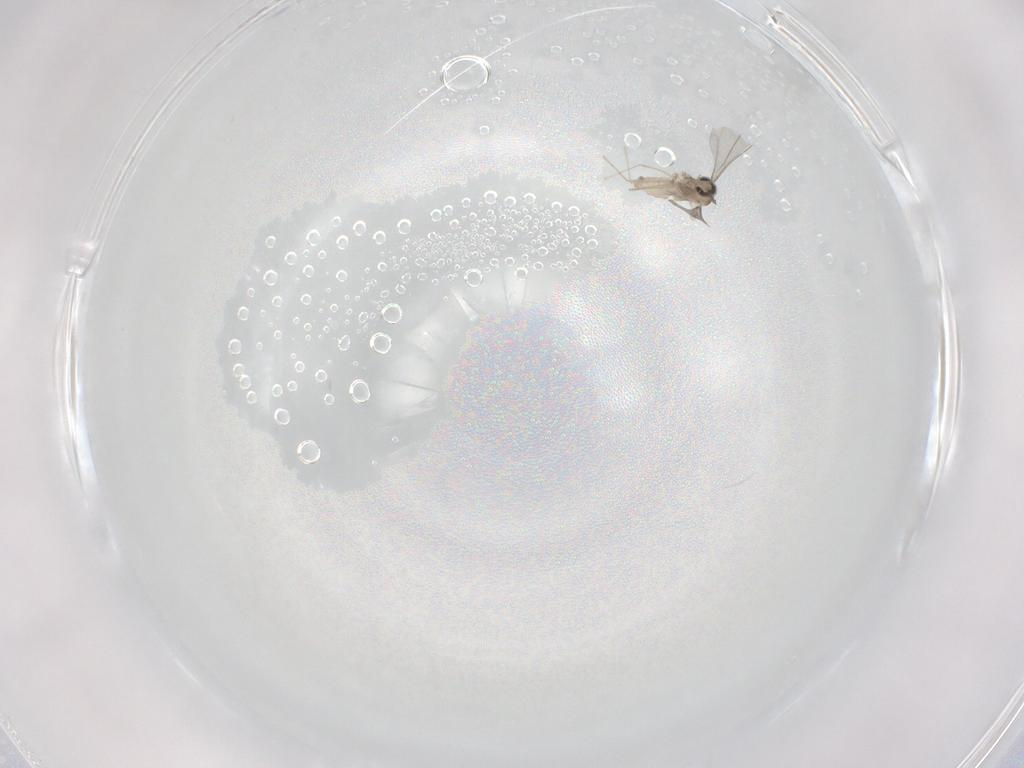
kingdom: Animalia
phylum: Arthropoda
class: Insecta
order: Diptera
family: Cecidomyiidae
